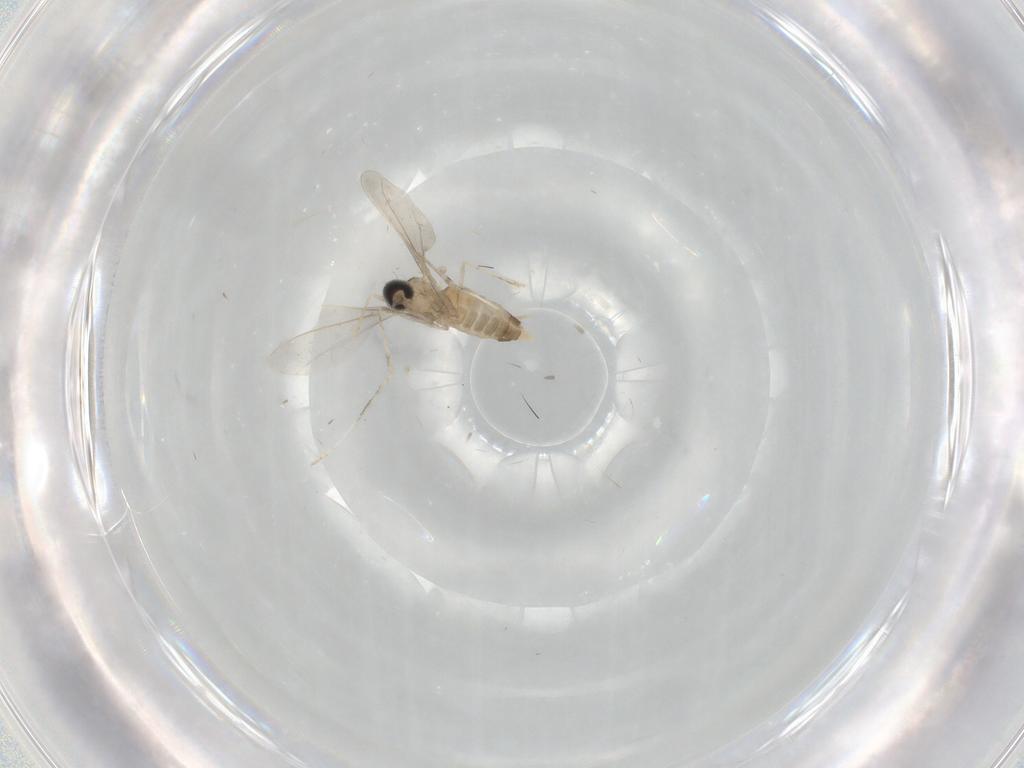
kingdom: Animalia
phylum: Arthropoda
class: Insecta
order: Diptera
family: Cecidomyiidae
